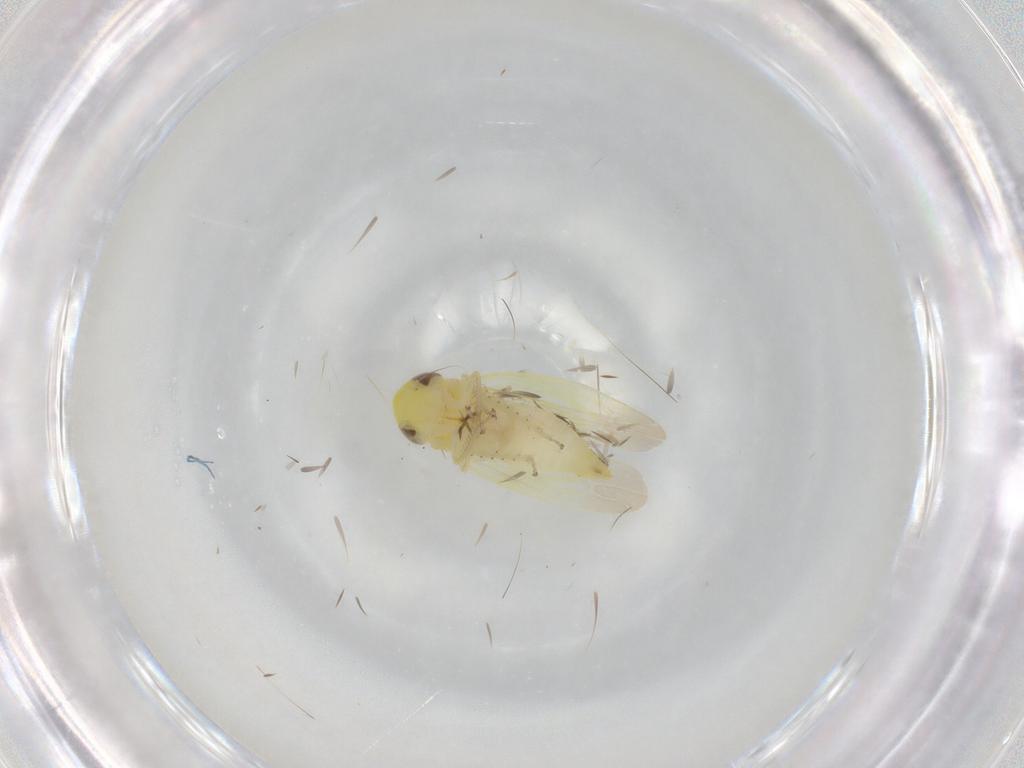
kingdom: Animalia
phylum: Arthropoda
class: Insecta
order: Hemiptera
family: Cicadellidae
